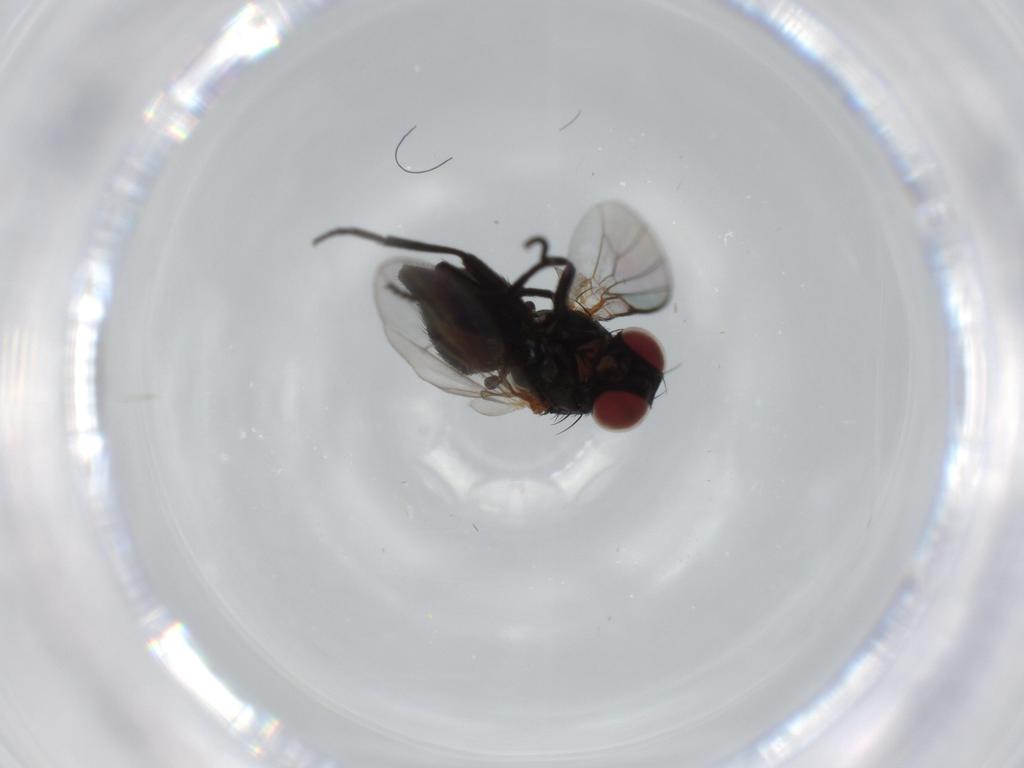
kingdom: Animalia
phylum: Arthropoda
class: Insecta
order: Diptera
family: Agromyzidae
